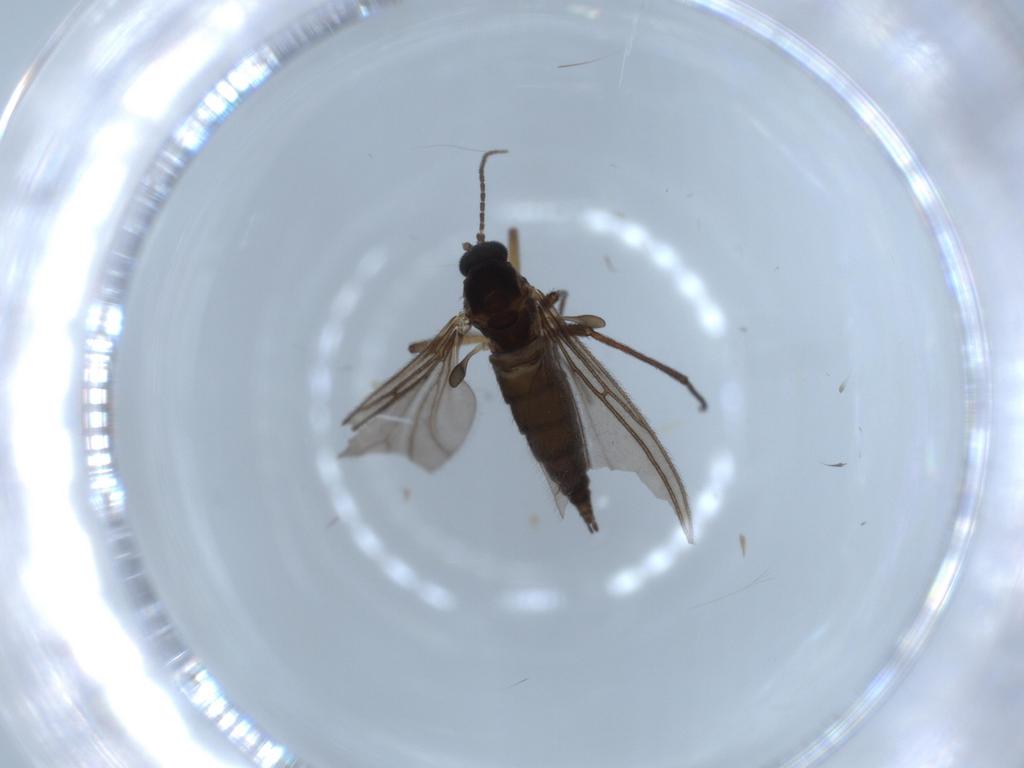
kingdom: Animalia
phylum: Arthropoda
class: Insecta
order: Diptera
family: Sciaridae
